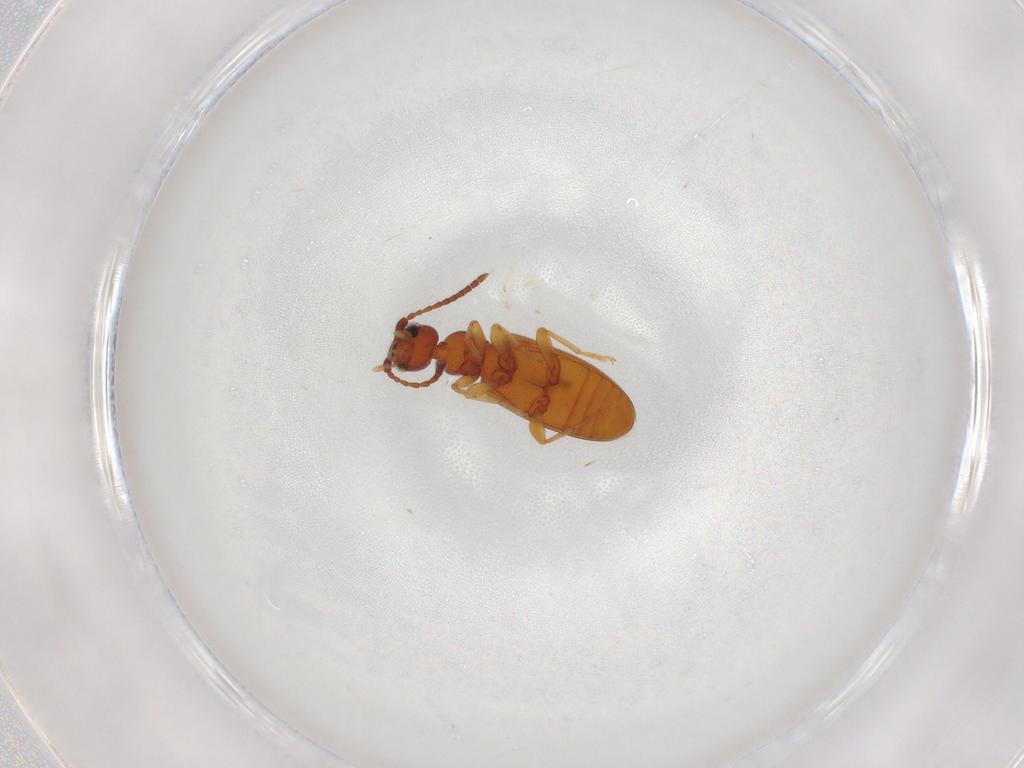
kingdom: Animalia
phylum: Arthropoda
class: Insecta
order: Coleoptera
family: Scarabaeidae
